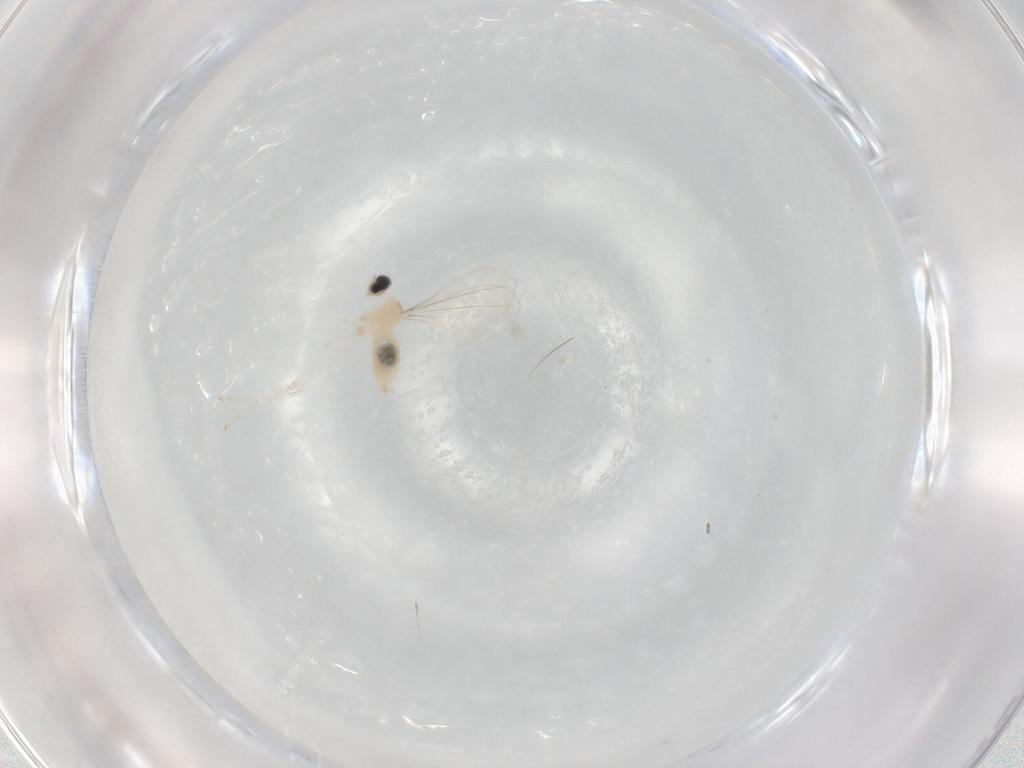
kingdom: Animalia
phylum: Arthropoda
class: Insecta
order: Diptera
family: Cecidomyiidae
